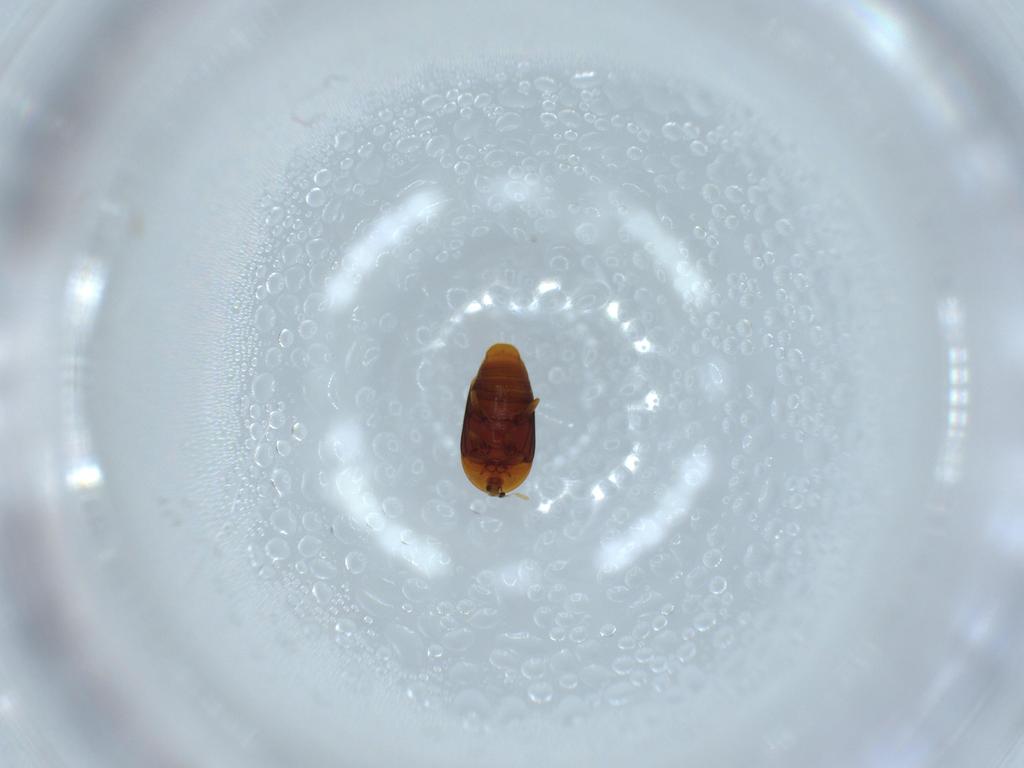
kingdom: Animalia
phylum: Arthropoda
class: Insecta
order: Coleoptera
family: Corylophidae
